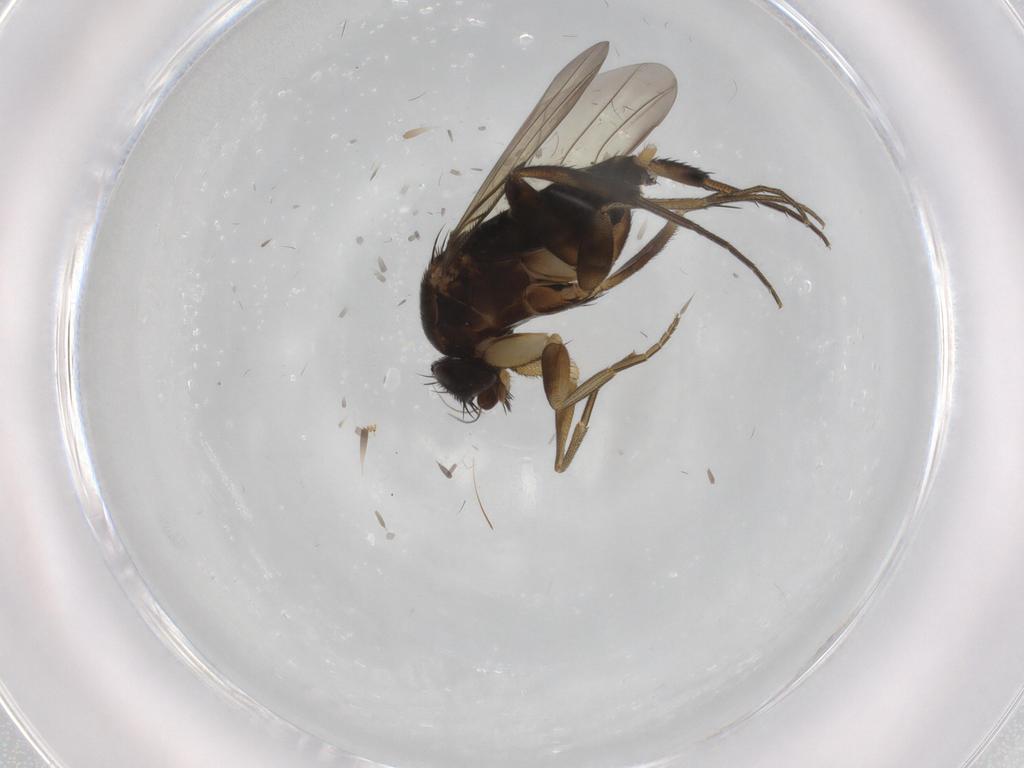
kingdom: Animalia
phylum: Arthropoda
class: Insecta
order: Diptera
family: Phoridae
